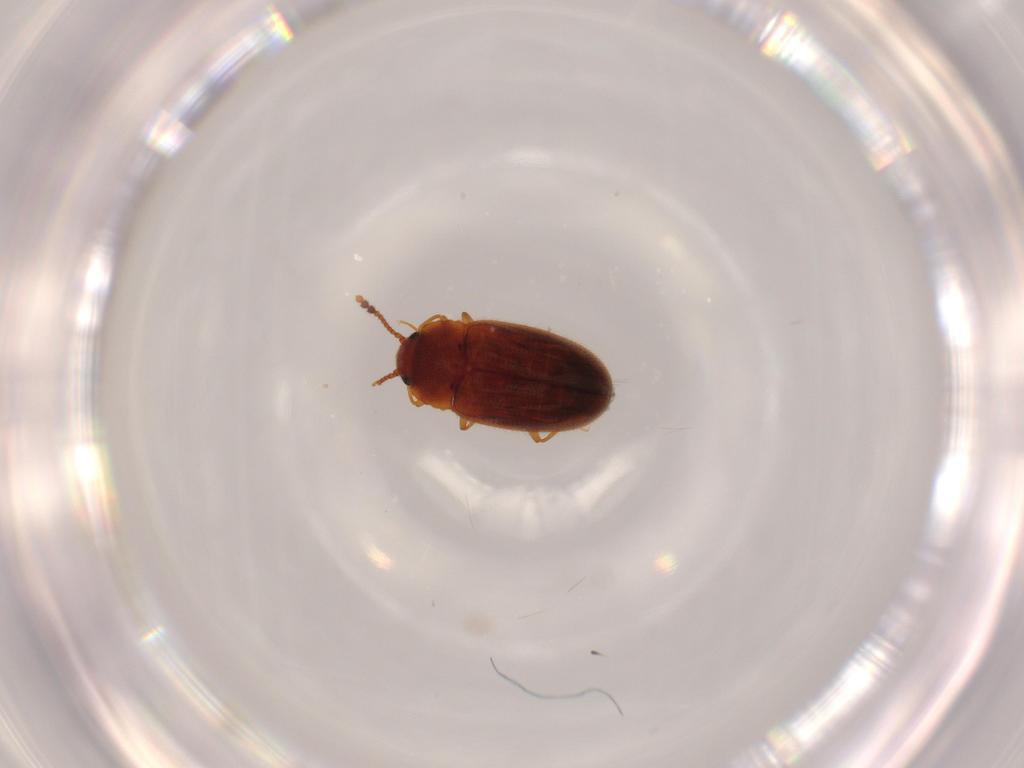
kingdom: Animalia
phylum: Arthropoda
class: Insecta
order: Coleoptera
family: Erotylidae
